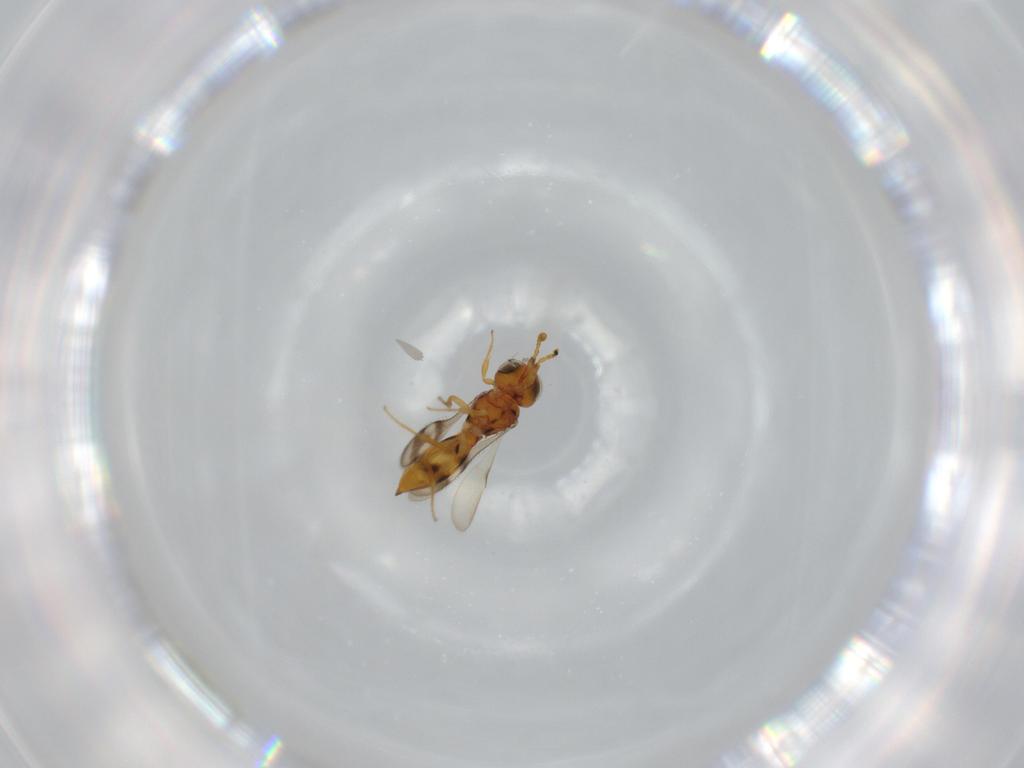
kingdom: Animalia
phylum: Arthropoda
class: Insecta
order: Hymenoptera
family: Scelionidae
